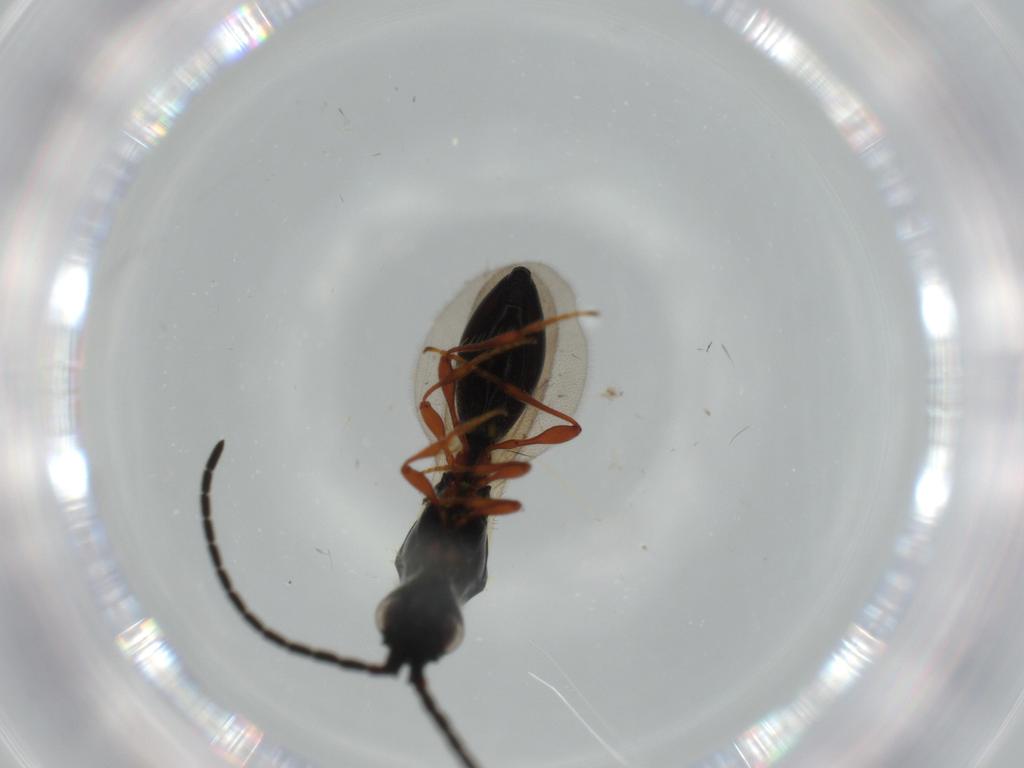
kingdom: Animalia
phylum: Arthropoda
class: Insecta
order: Hymenoptera
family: Diapriidae
